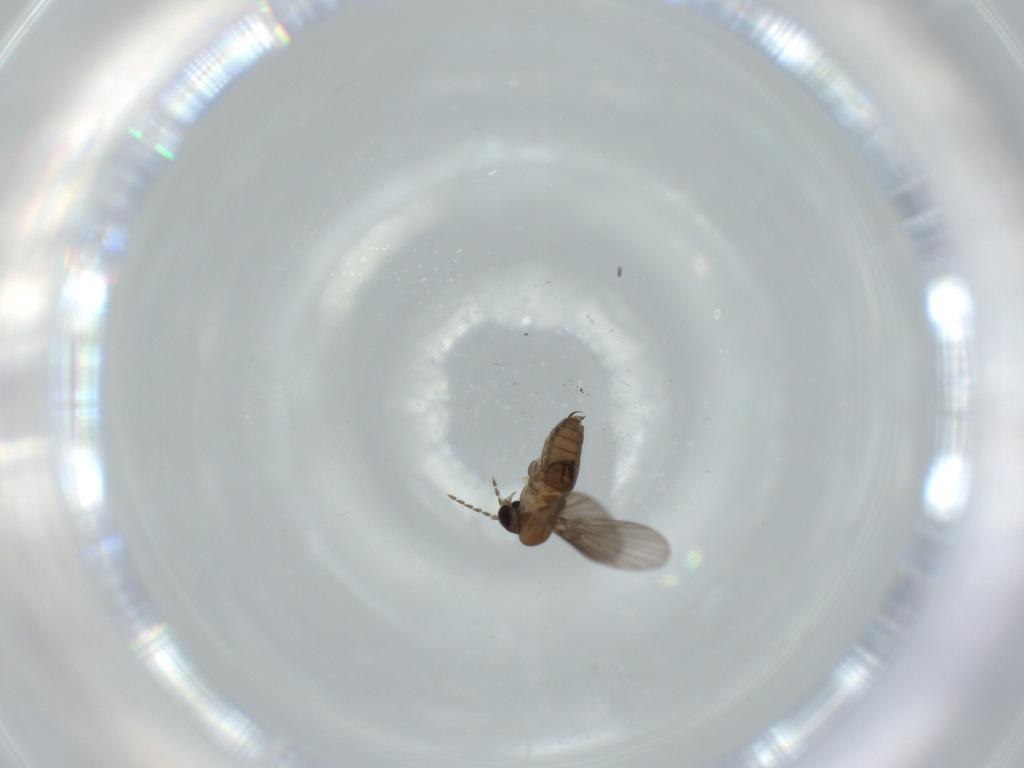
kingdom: Animalia
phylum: Arthropoda
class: Insecta
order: Diptera
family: Psychodidae
